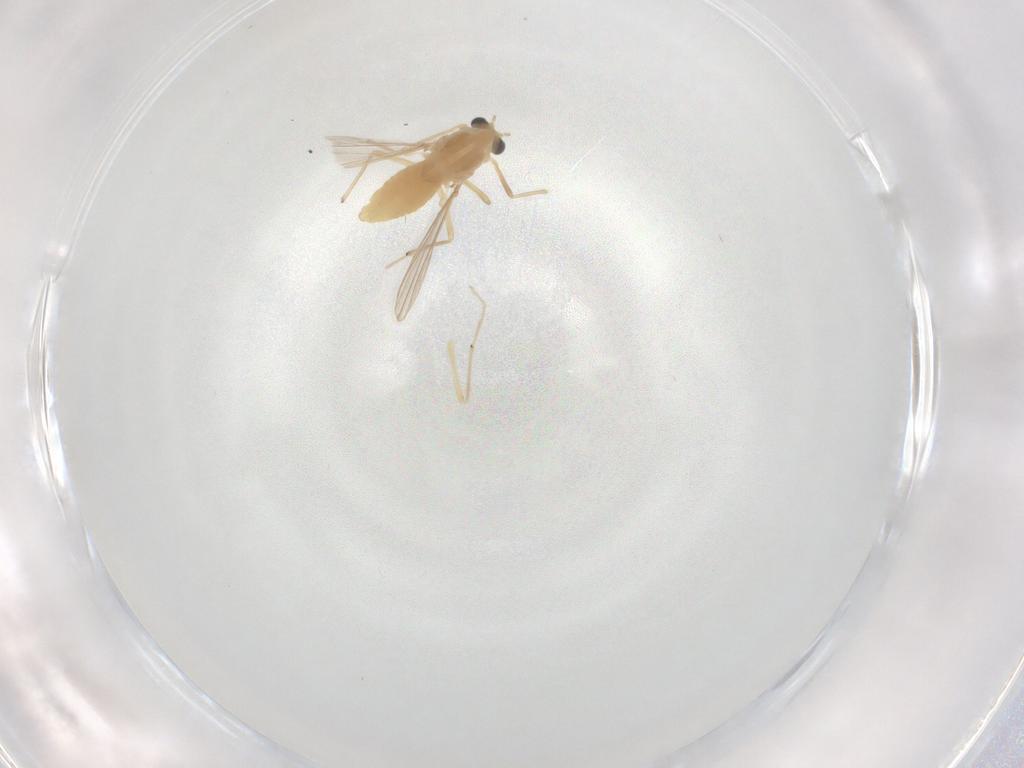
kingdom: Animalia
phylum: Arthropoda
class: Insecta
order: Diptera
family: Chironomidae
